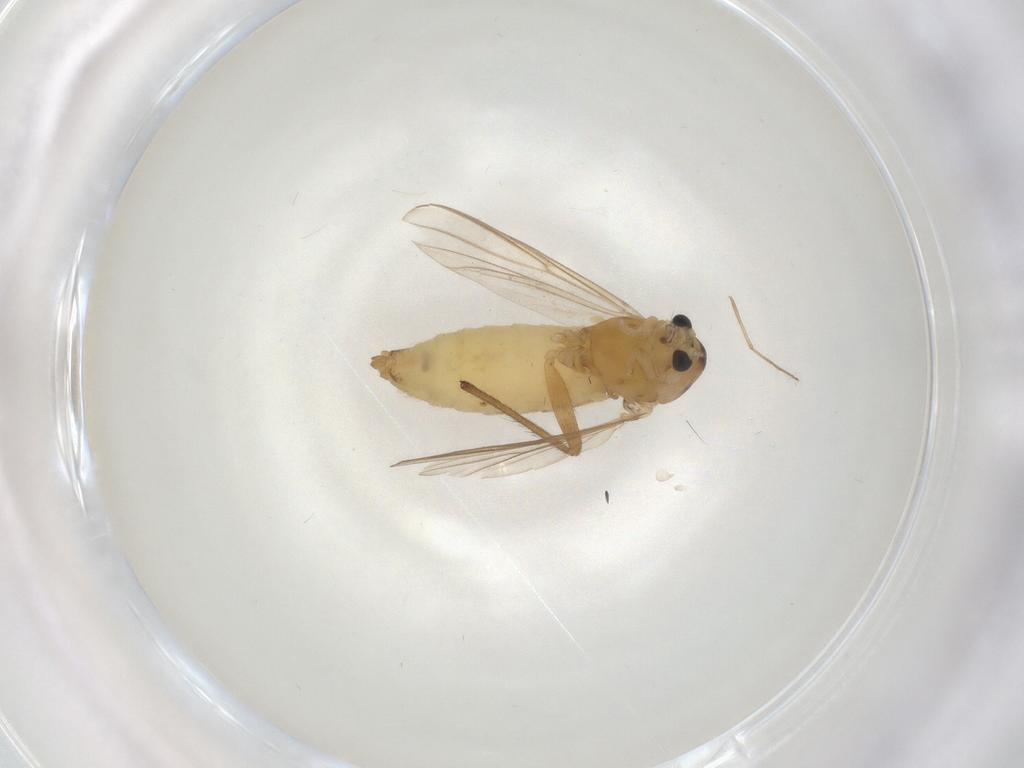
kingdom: Animalia
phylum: Arthropoda
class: Insecta
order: Diptera
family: Chironomidae
